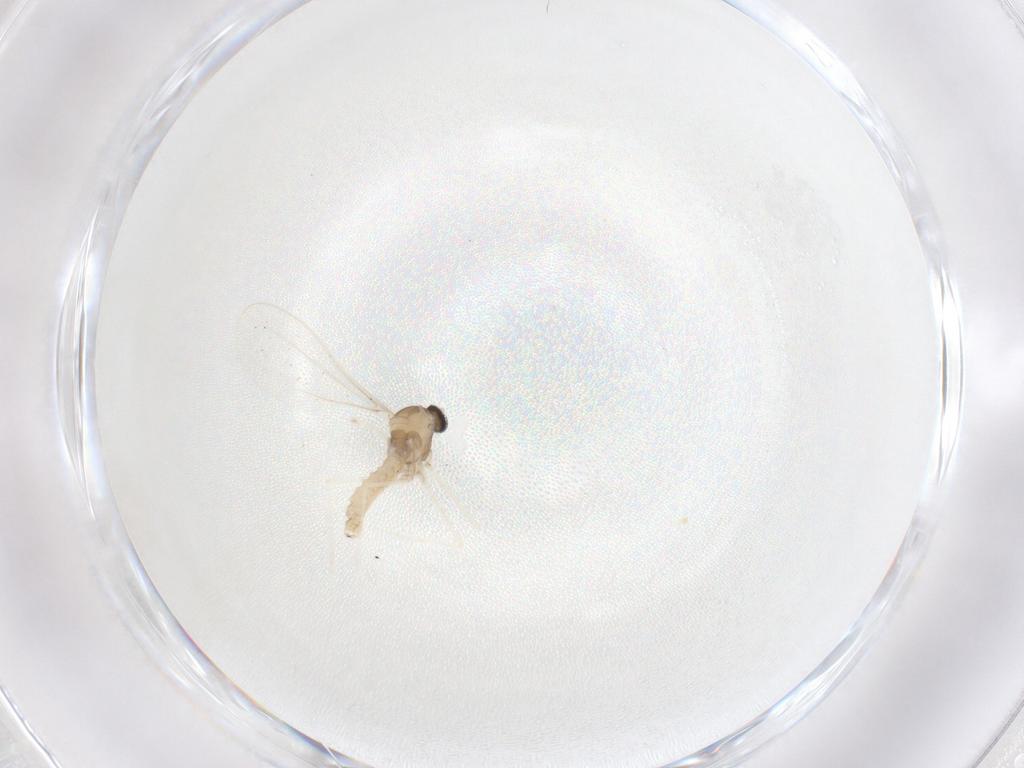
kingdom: Animalia
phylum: Arthropoda
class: Insecta
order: Diptera
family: Cecidomyiidae
